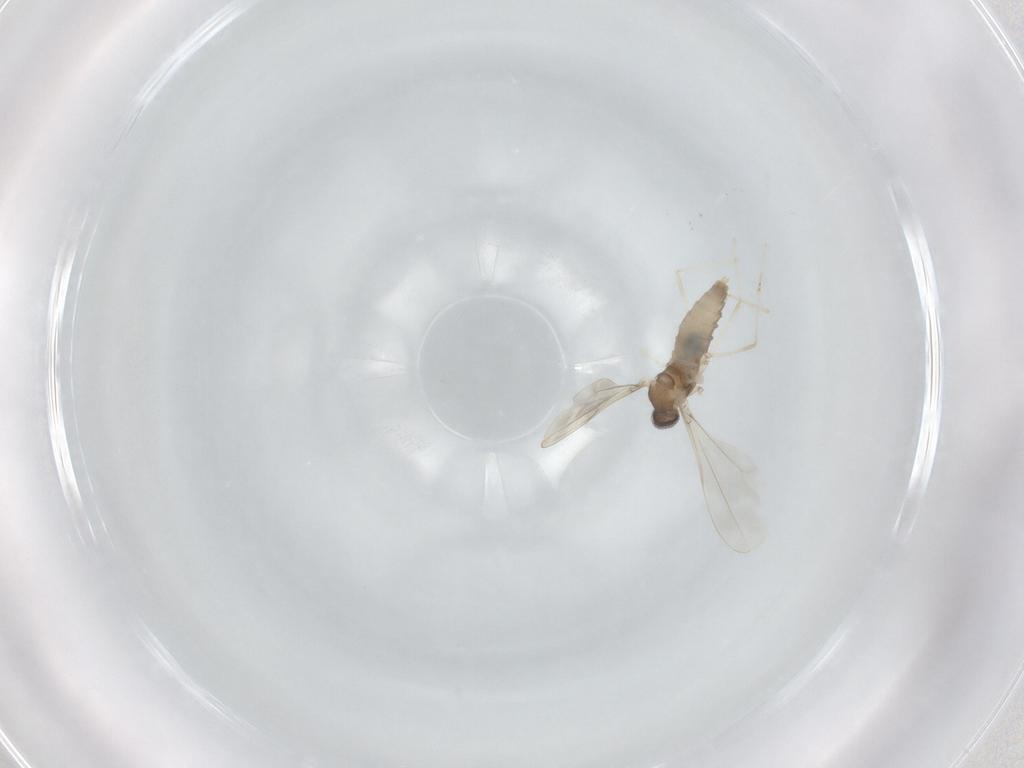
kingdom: Animalia
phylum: Arthropoda
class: Insecta
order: Diptera
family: Cecidomyiidae
